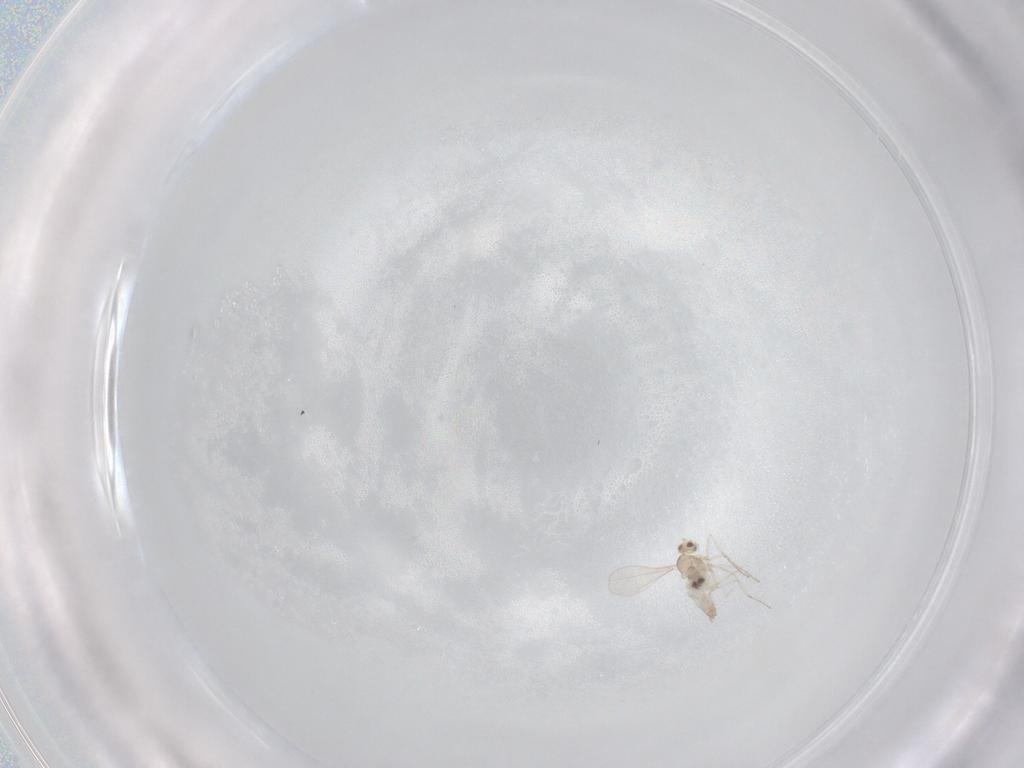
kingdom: Animalia
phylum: Arthropoda
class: Insecta
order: Diptera
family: Cecidomyiidae
